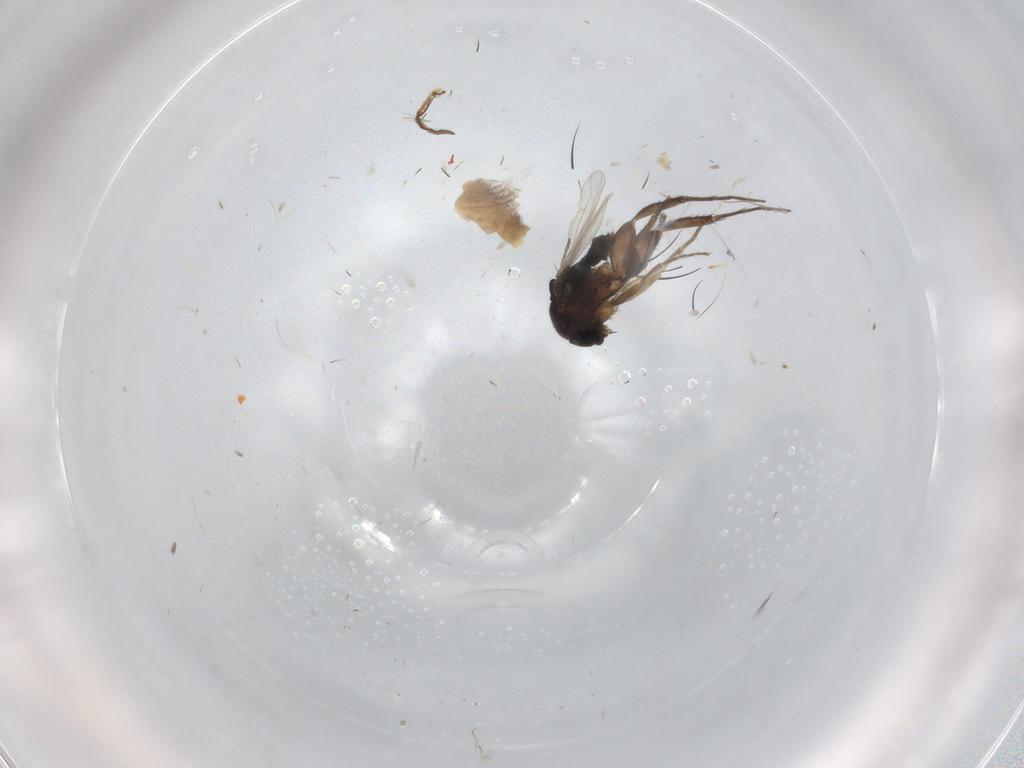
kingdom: Animalia
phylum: Arthropoda
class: Insecta
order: Diptera
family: Glossinidae
